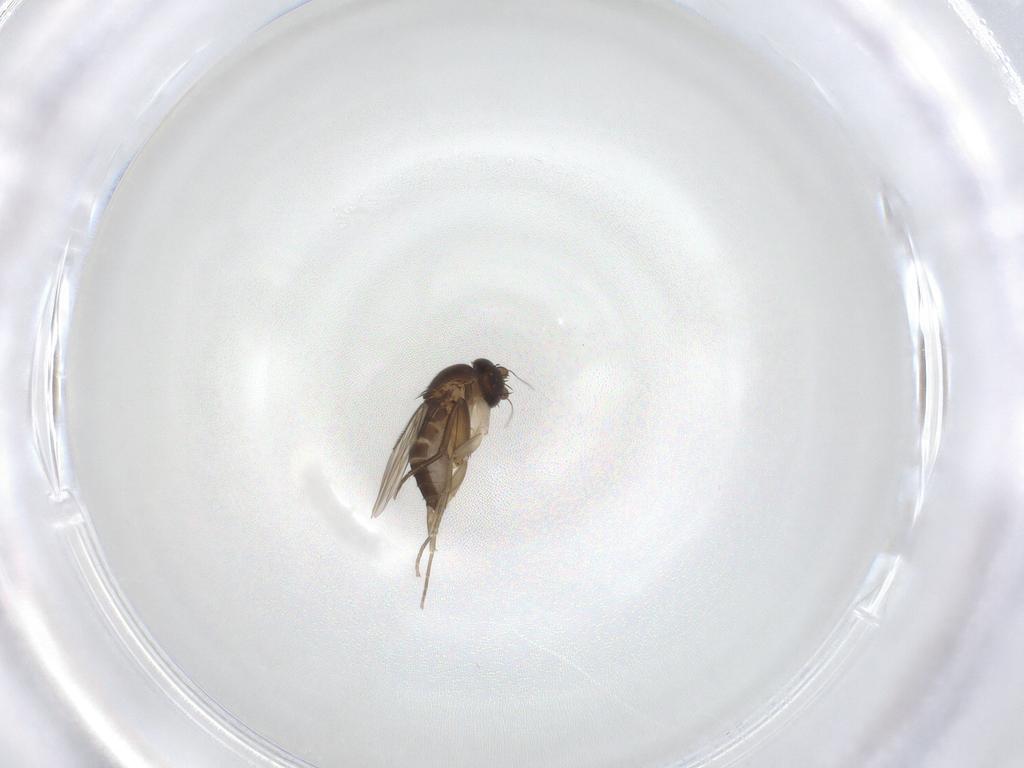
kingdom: Animalia
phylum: Arthropoda
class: Insecta
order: Diptera
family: Phoridae
